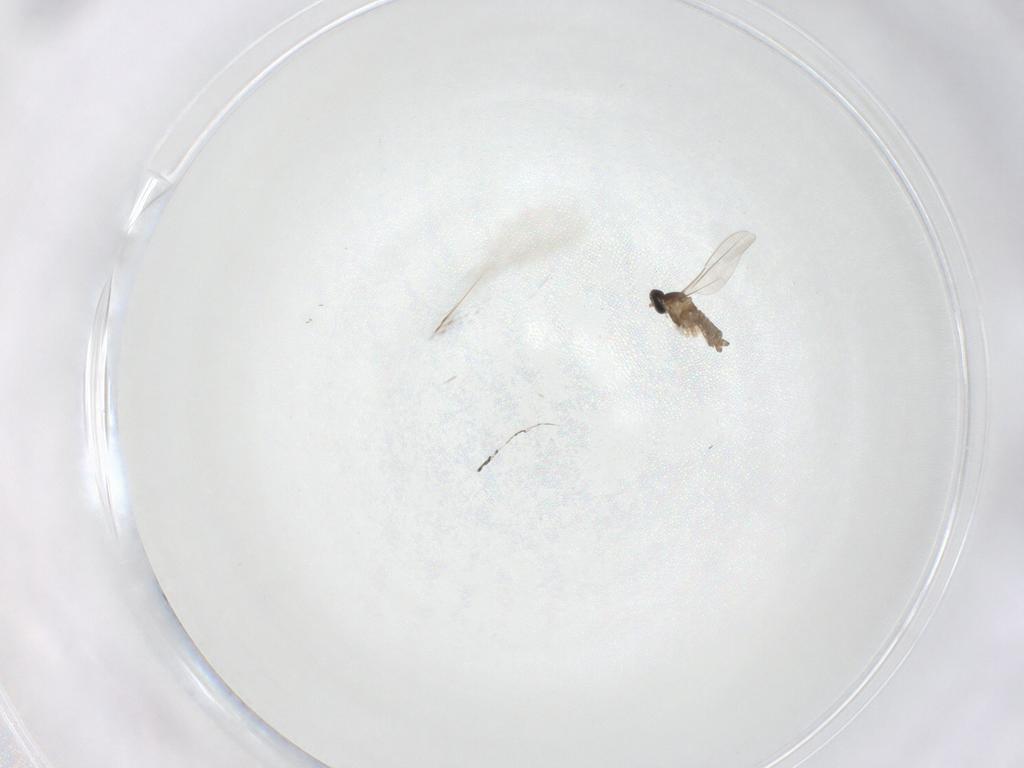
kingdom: Animalia
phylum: Arthropoda
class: Insecta
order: Diptera
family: Cecidomyiidae
